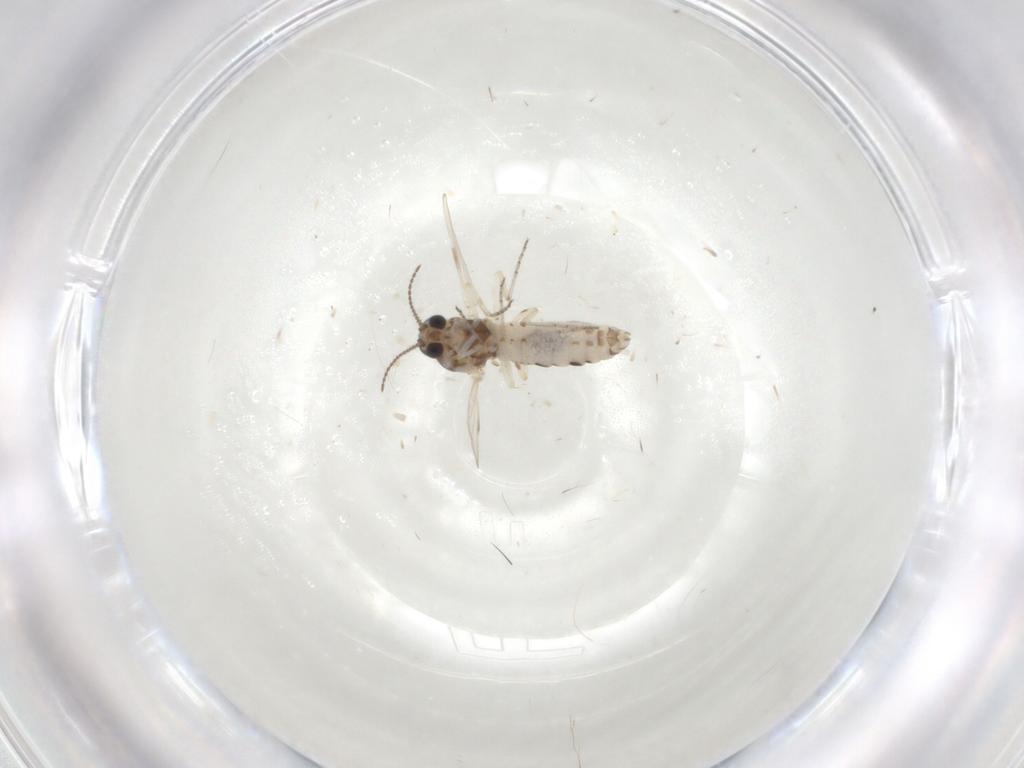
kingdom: Animalia
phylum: Arthropoda
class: Insecta
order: Diptera
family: Ceratopogonidae
